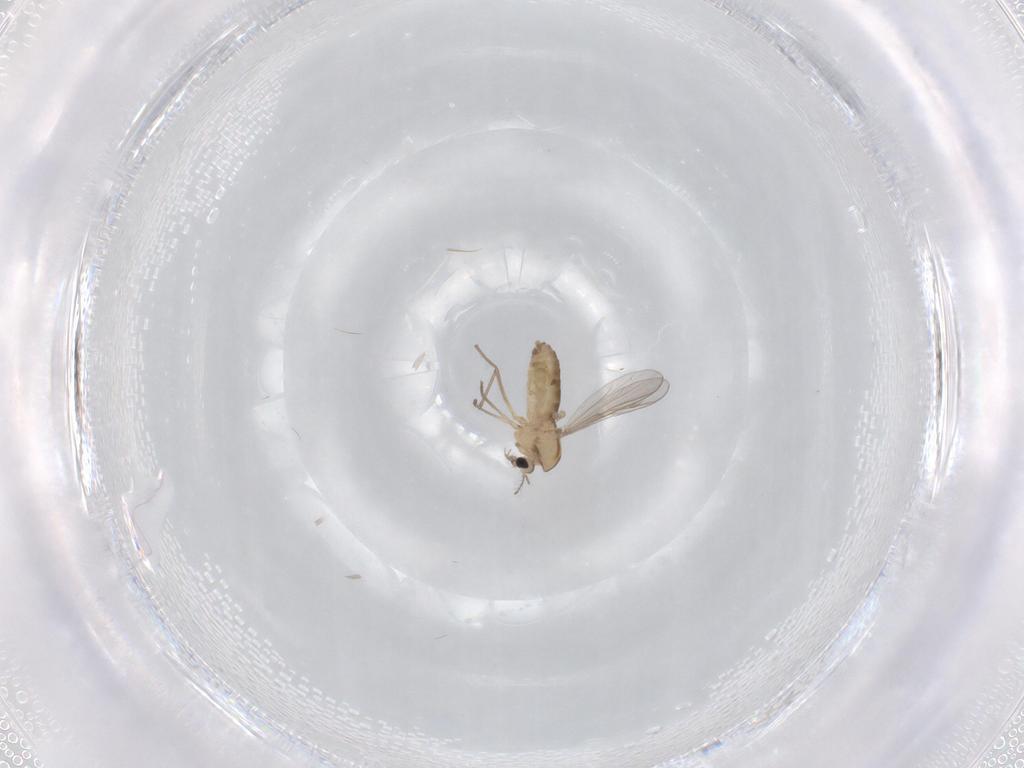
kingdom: Animalia
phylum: Arthropoda
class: Insecta
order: Diptera
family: Chironomidae
